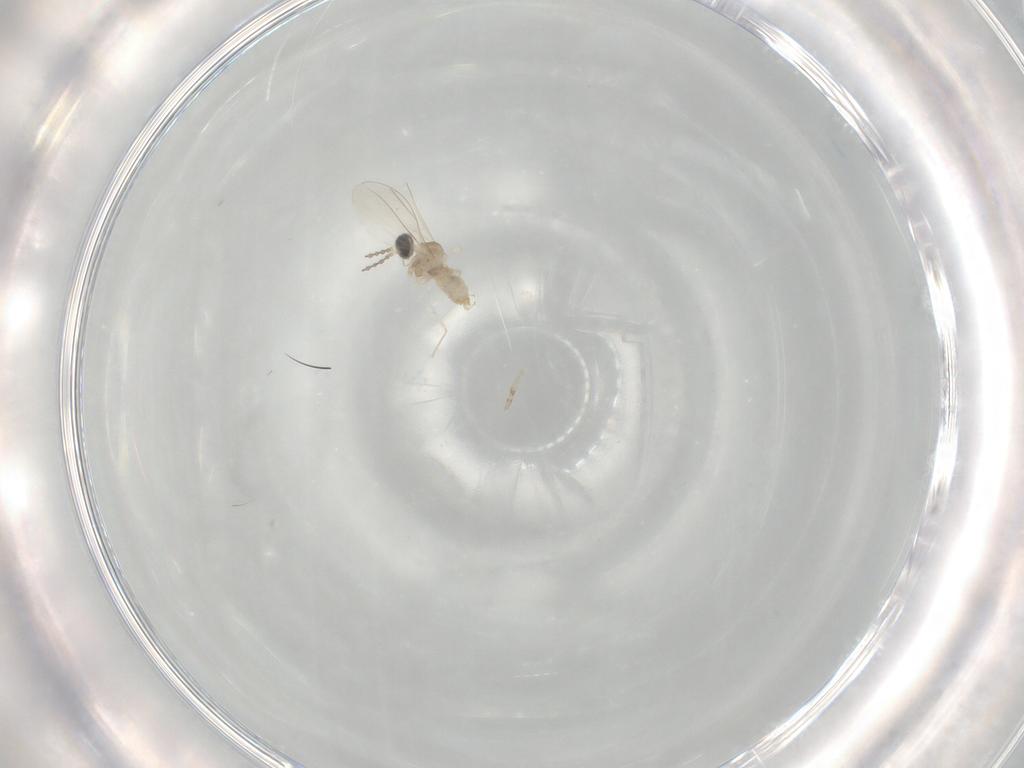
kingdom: Animalia
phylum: Arthropoda
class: Insecta
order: Diptera
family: Cecidomyiidae
